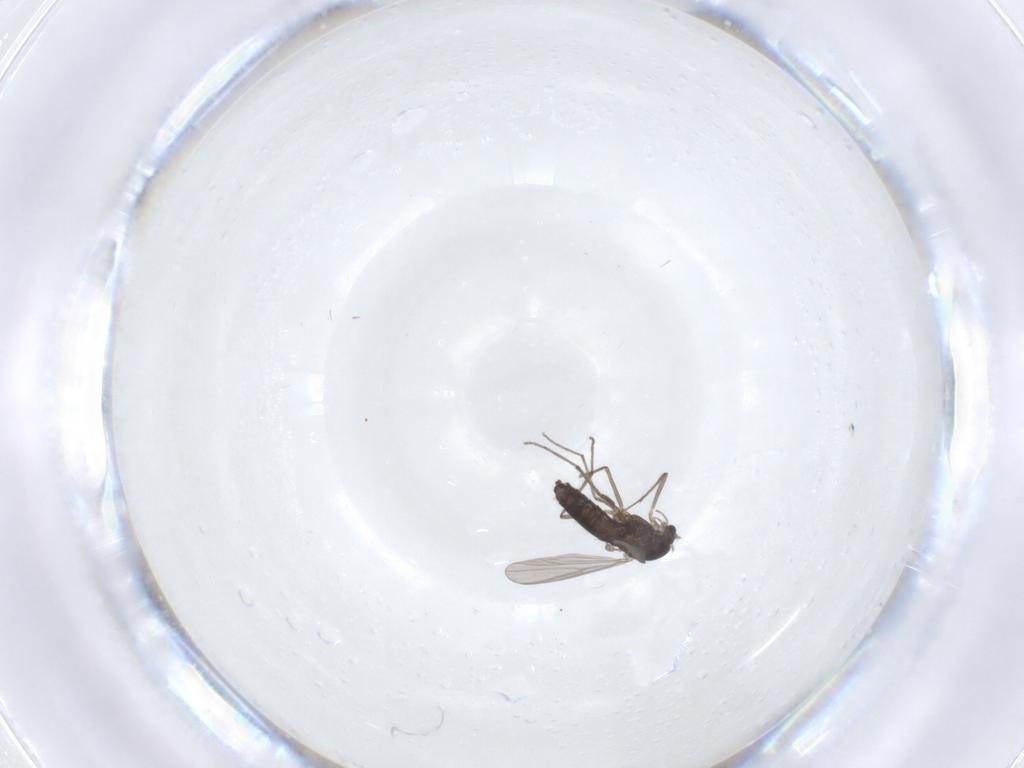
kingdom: Animalia
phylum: Arthropoda
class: Insecta
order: Diptera
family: Chironomidae
